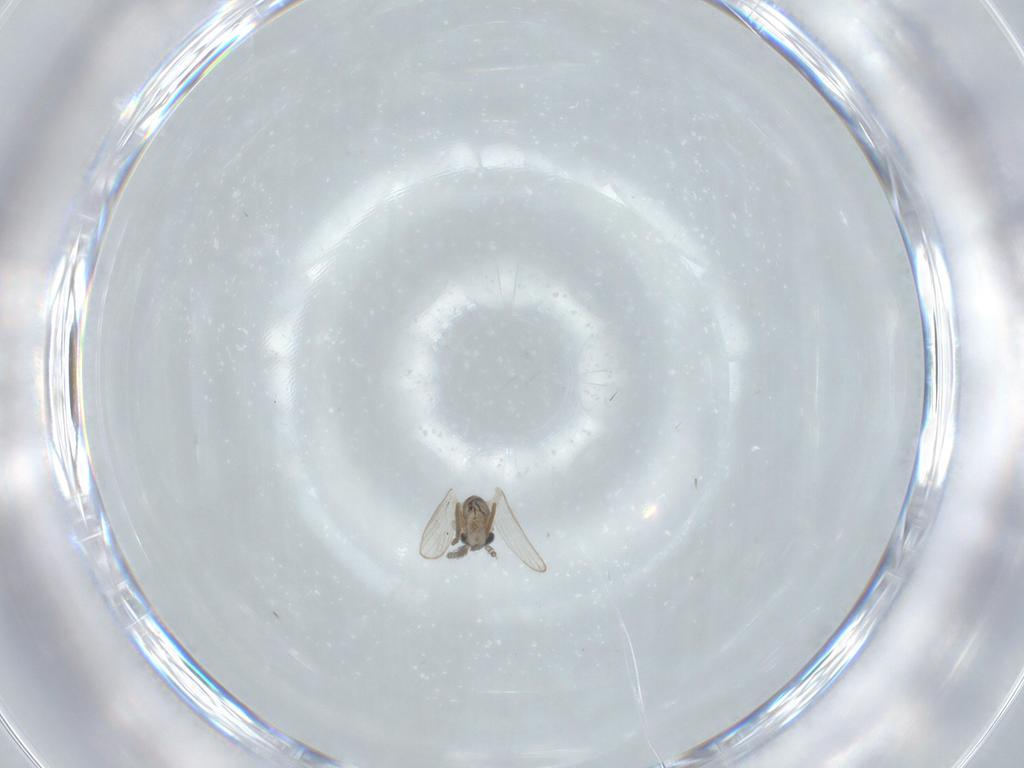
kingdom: Animalia
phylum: Arthropoda
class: Insecta
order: Diptera
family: Psychodidae
